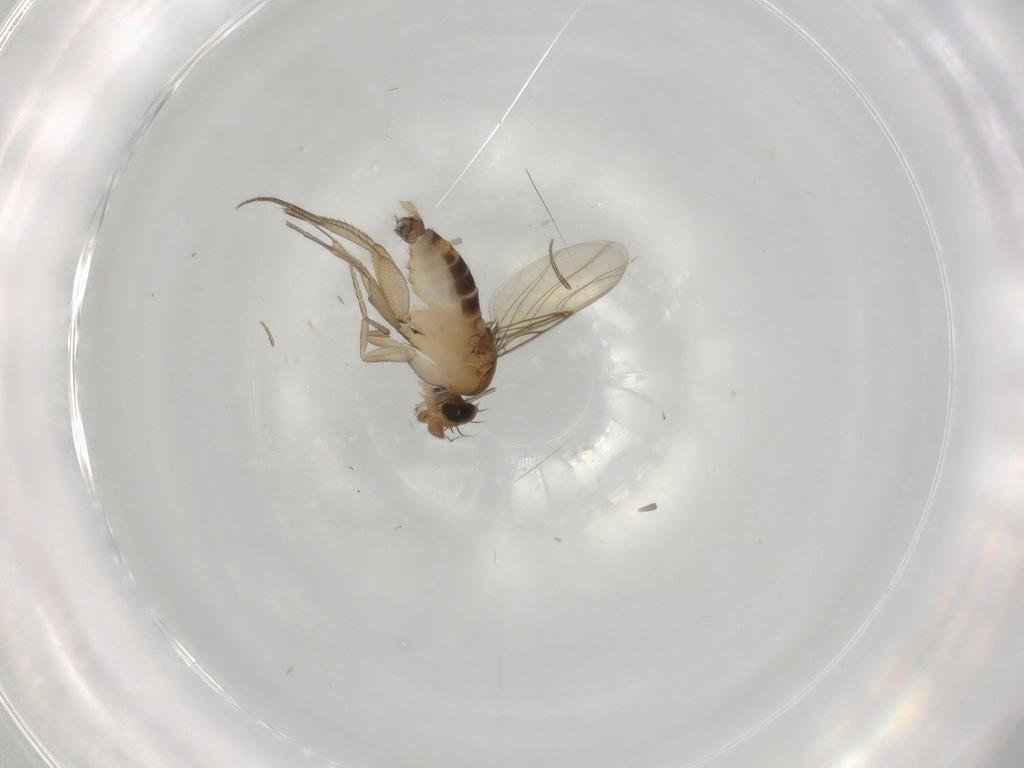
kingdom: Animalia
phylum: Arthropoda
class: Insecta
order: Diptera
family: Phoridae
